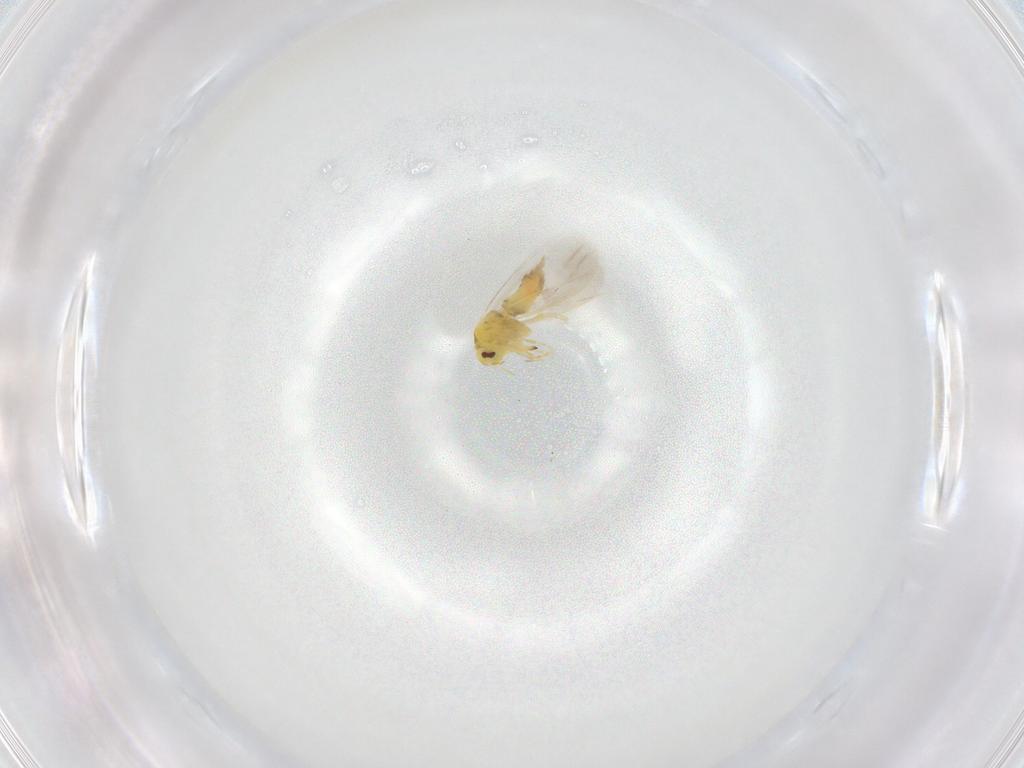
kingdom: Animalia
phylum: Arthropoda
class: Insecta
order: Hemiptera
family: Aleyrodidae
